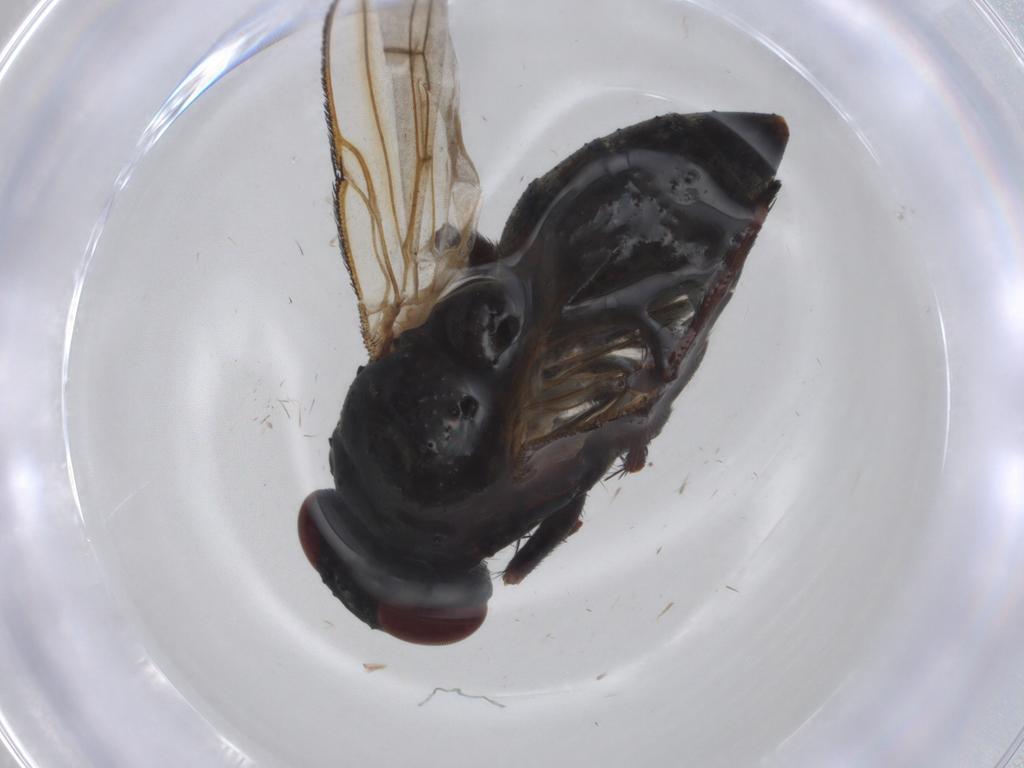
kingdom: Animalia
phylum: Arthropoda
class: Insecta
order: Diptera
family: Sciaridae
